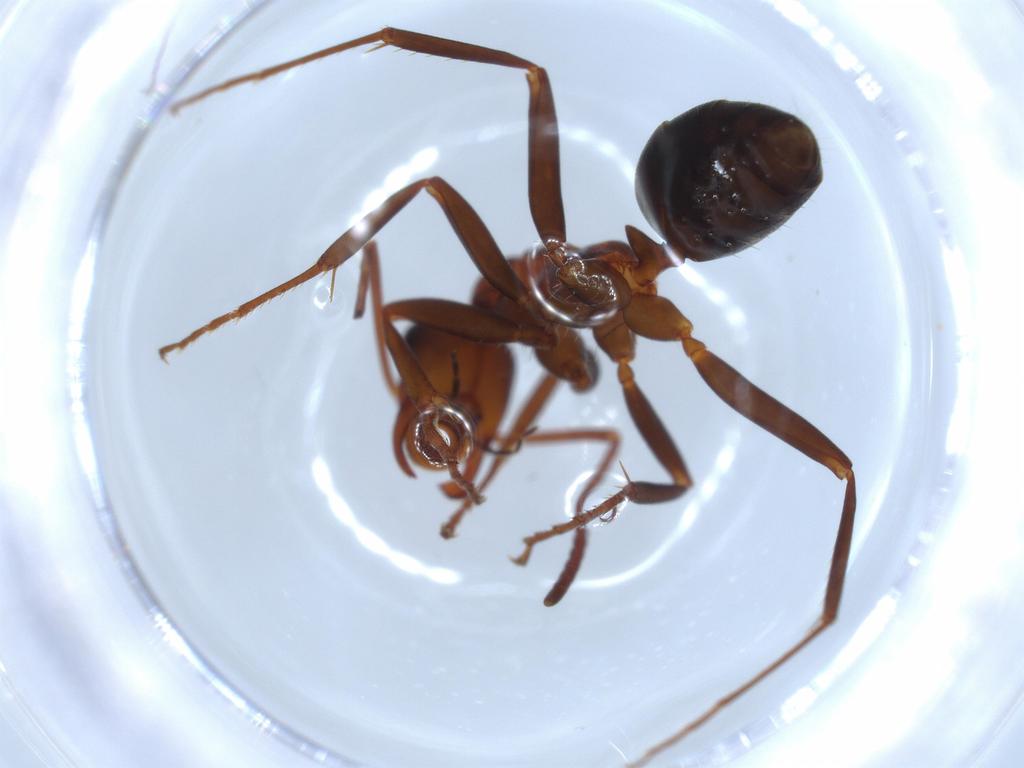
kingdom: Animalia
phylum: Arthropoda
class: Insecta
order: Hymenoptera
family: Formicidae
